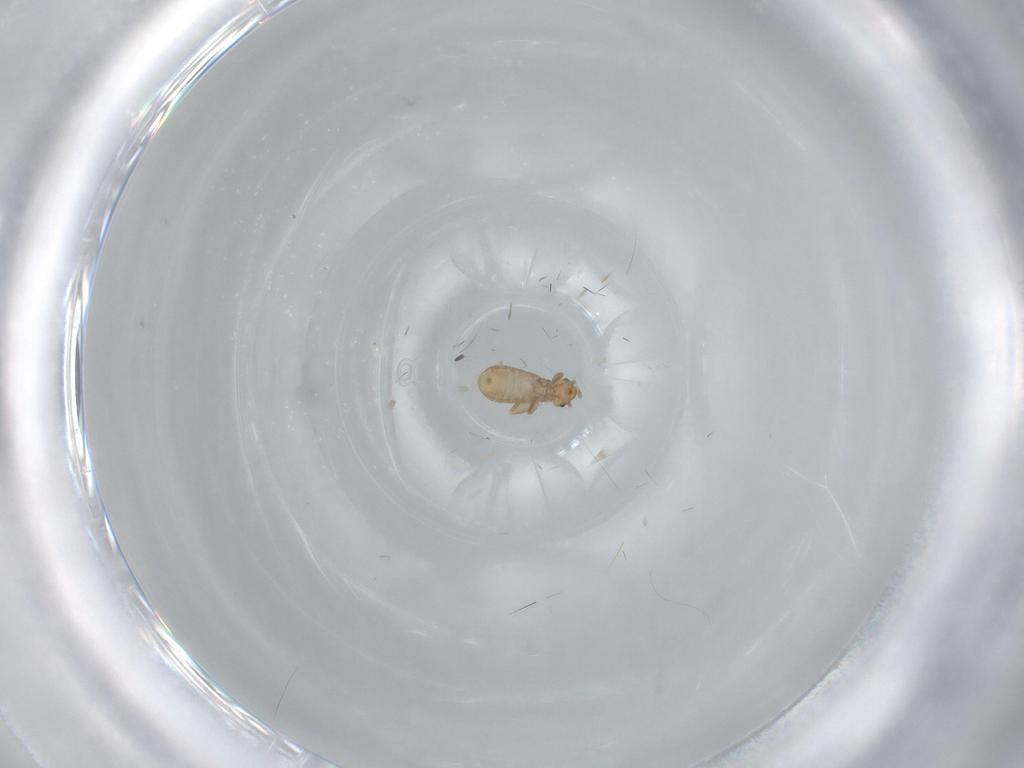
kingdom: Animalia
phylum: Arthropoda
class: Insecta
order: Psocodea
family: Liposcelididae
